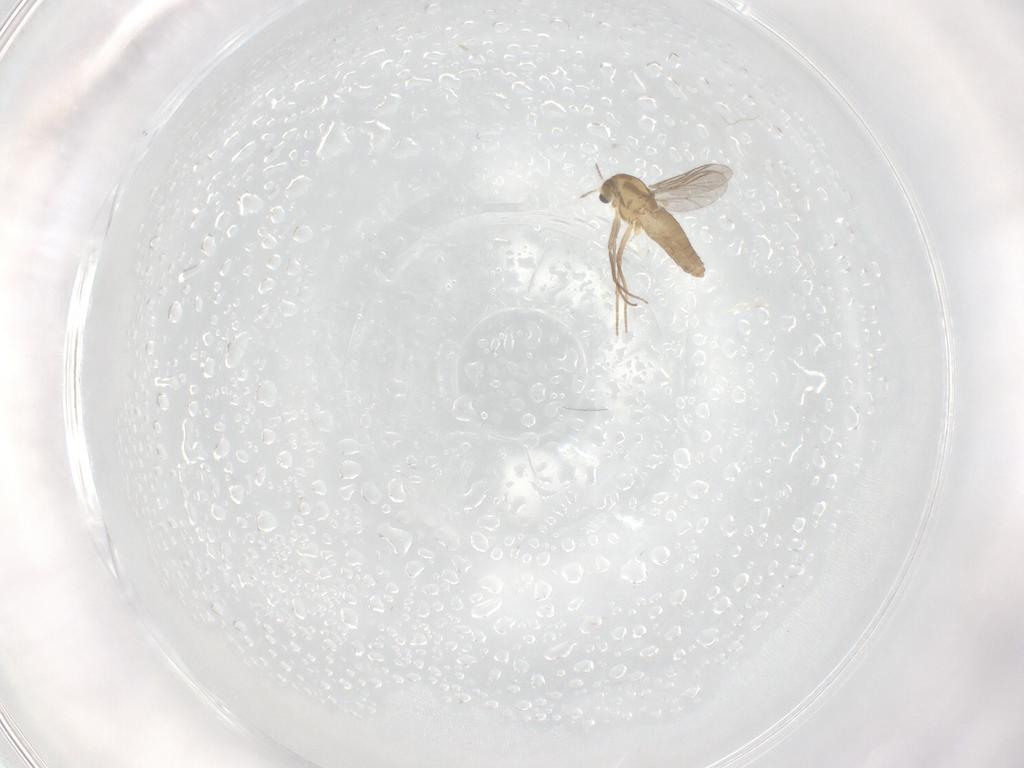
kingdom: Animalia
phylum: Arthropoda
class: Insecta
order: Diptera
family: Chironomidae
